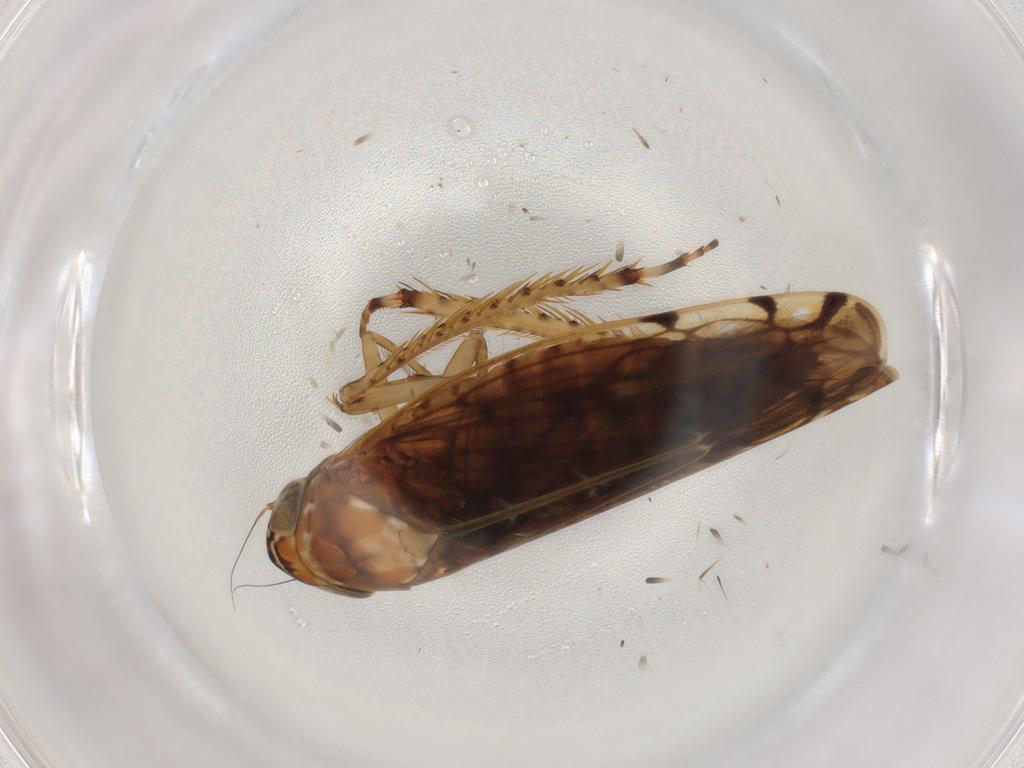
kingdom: Animalia
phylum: Arthropoda
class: Insecta
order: Hemiptera
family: Cicadellidae
